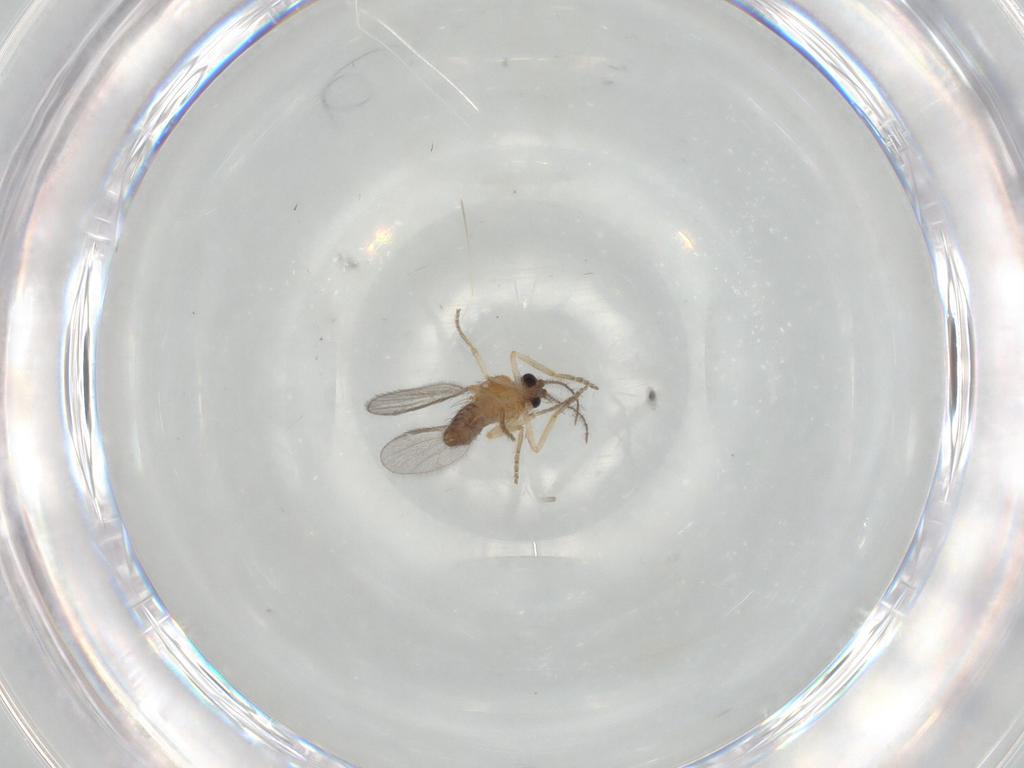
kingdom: Animalia
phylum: Arthropoda
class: Insecta
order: Diptera
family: Ceratopogonidae
